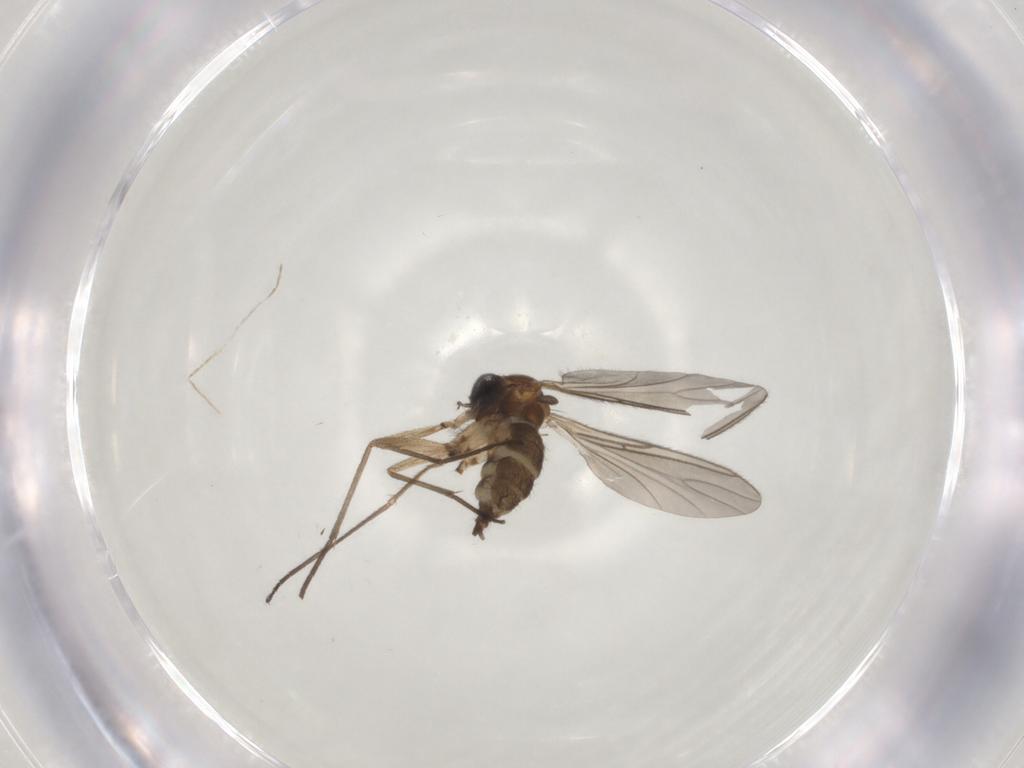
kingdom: Animalia
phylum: Arthropoda
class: Insecta
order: Diptera
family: Sciaridae
